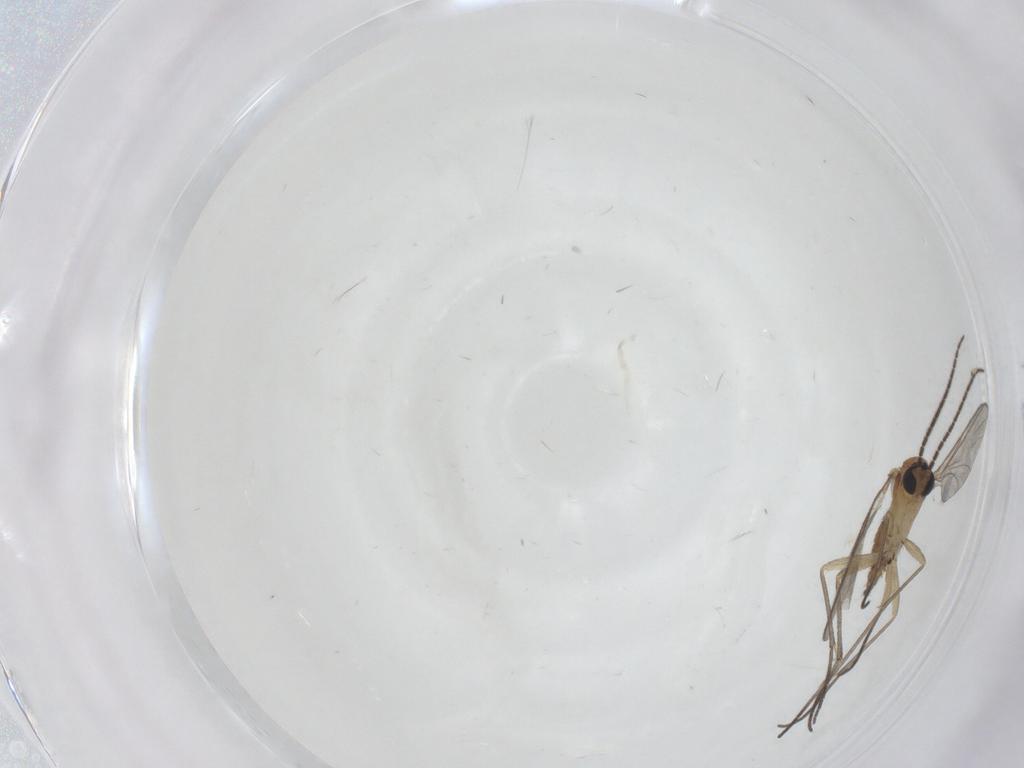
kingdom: Animalia
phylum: Arthropoda
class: Insecta
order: Diptera
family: Sciaridae
